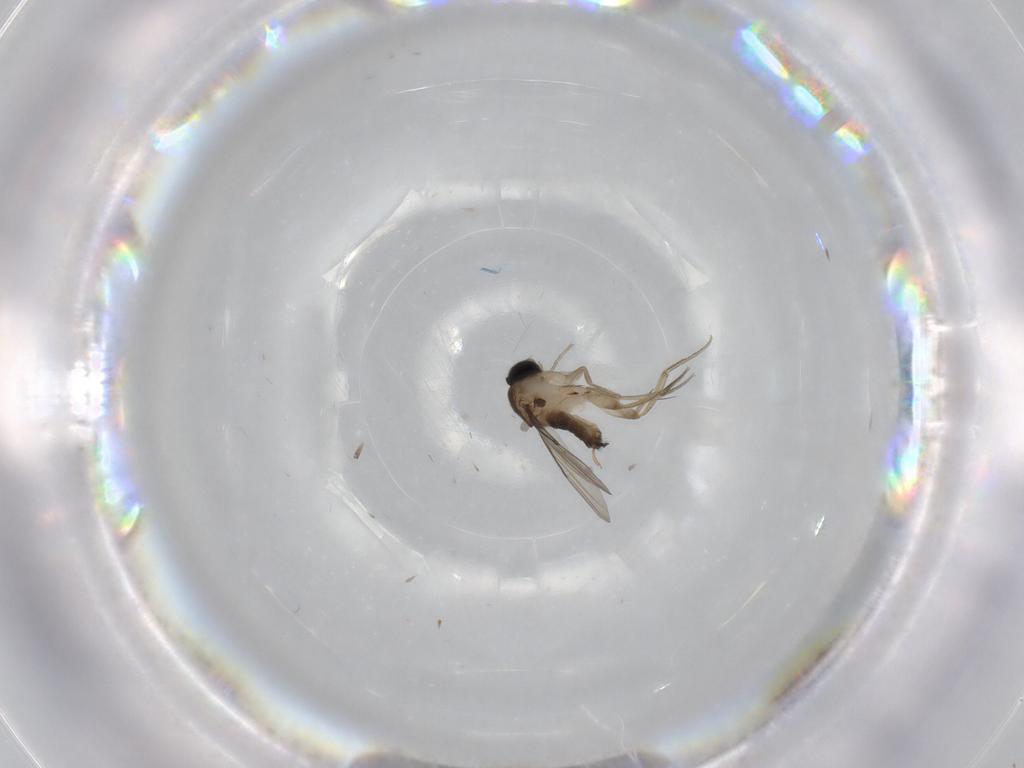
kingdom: Animalia
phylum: Arthropoda
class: Insecta
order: Diptera
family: Phoridae
